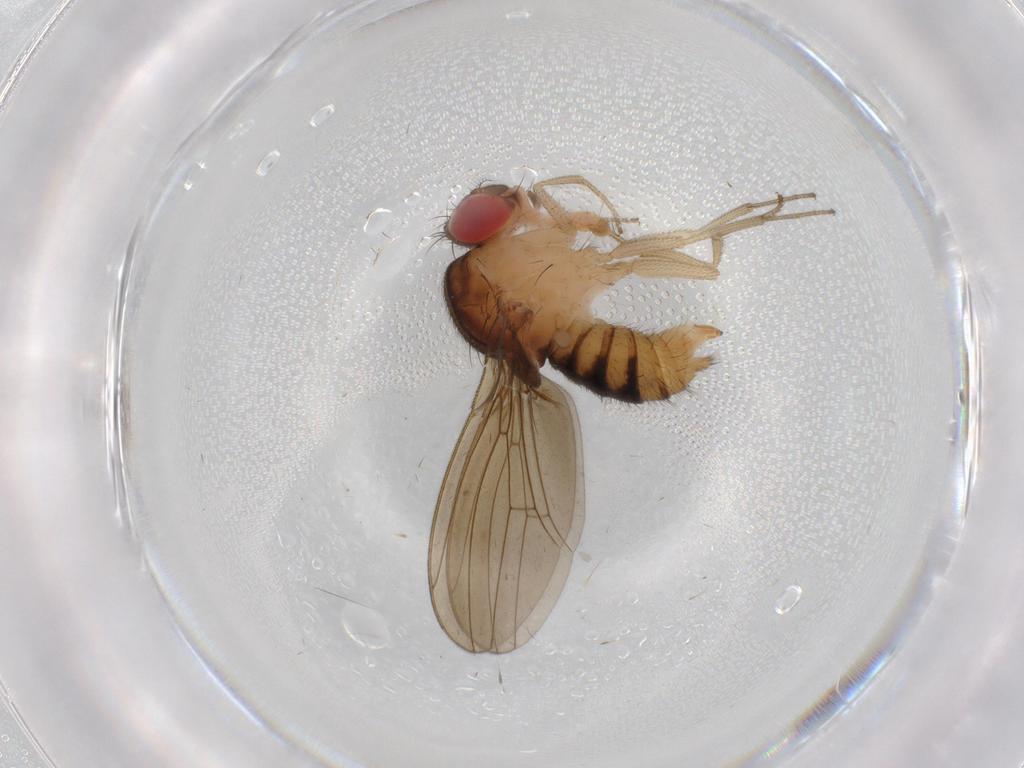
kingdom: Animalia
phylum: Arthropoda
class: Insecta
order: Diptera
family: Drosophilidae
